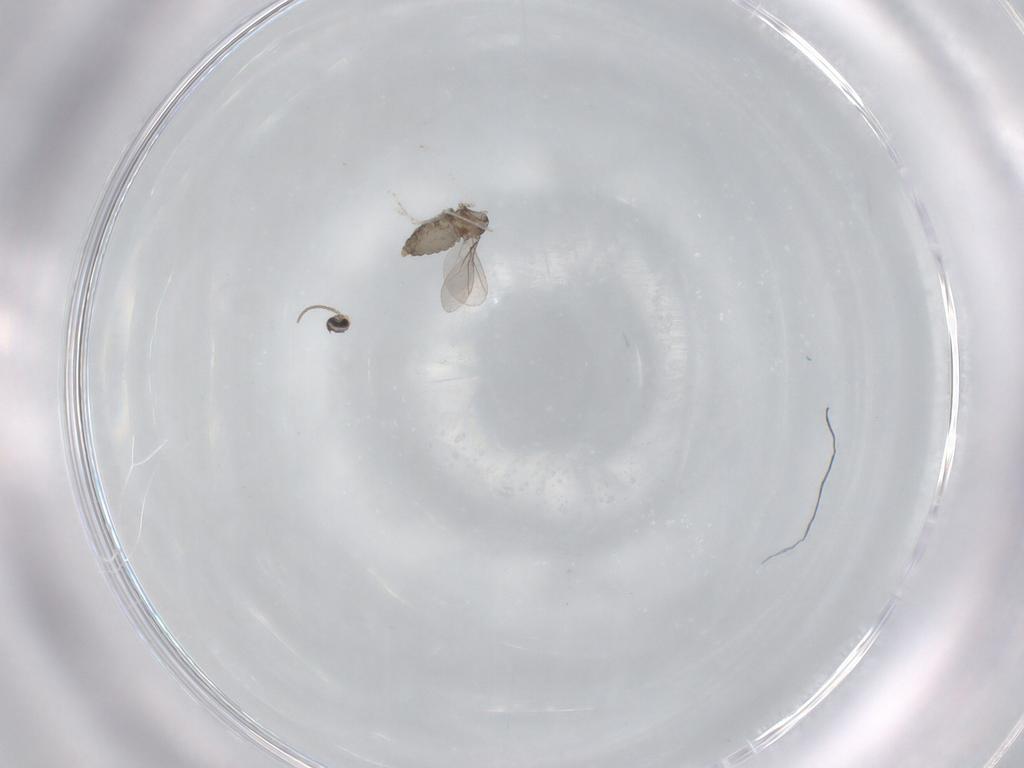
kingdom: Animalia
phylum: Arthropoda
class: Insecta
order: Diptera
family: Cecidomyiidae
